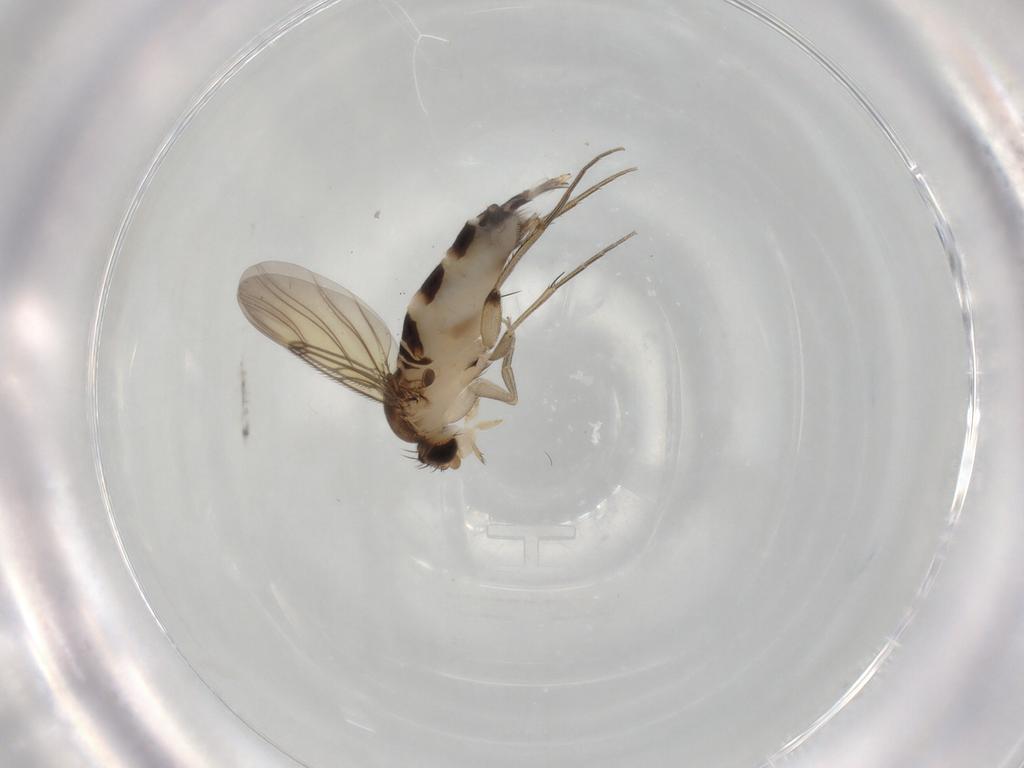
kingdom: Animalia
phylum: Arthropoda
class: Insecta
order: Diptera
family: Phoridae
